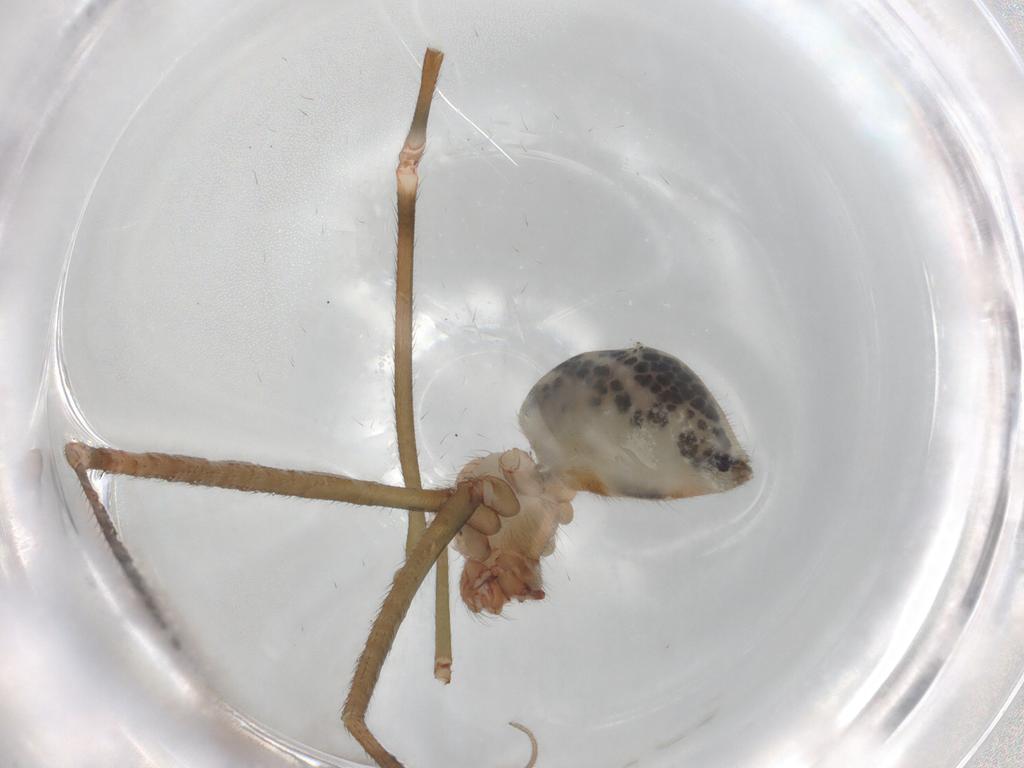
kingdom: Animalia
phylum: Arthropoda
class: Arachnida
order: Araneae
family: Pholcidae
